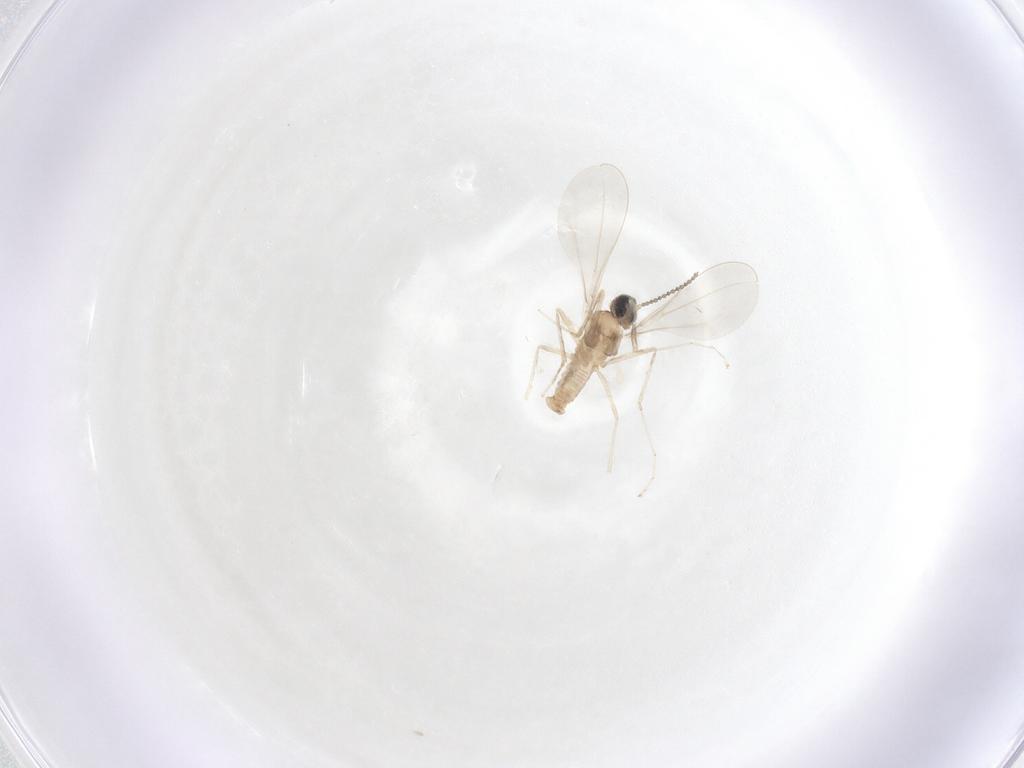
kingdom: Animalia
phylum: Arthropoda
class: Insecta
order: Diptera
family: Cecidomyiidae
